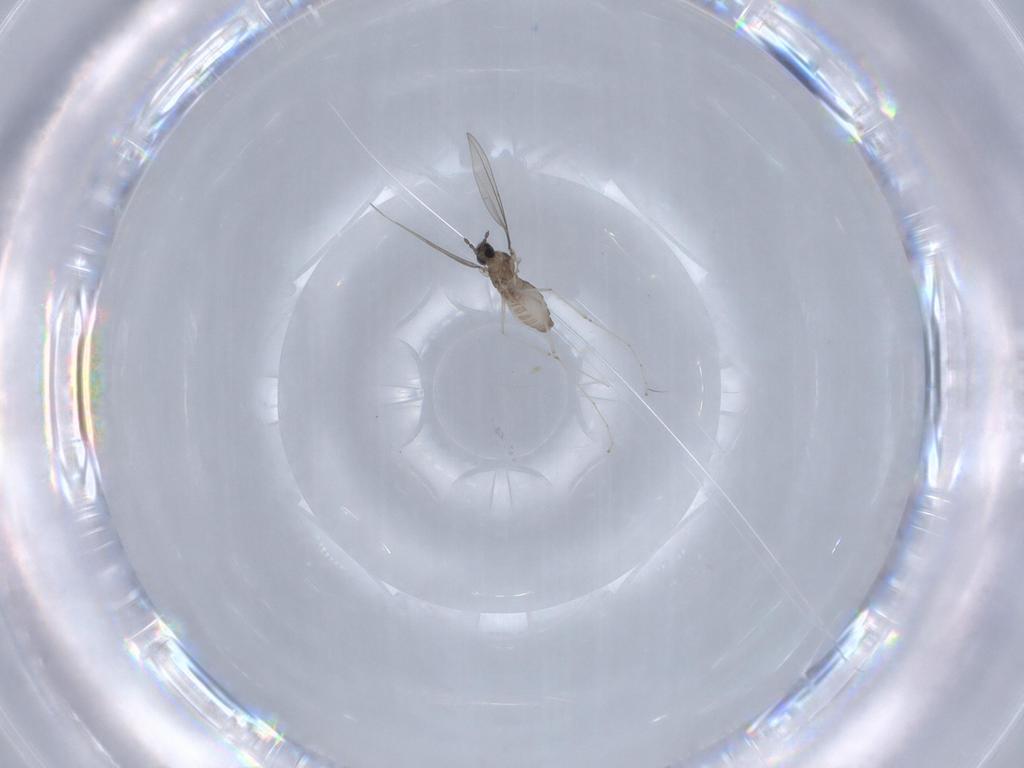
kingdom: Animalia
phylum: Arthropoda
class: Insecta
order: Diptera
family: Cecidomyiidae
